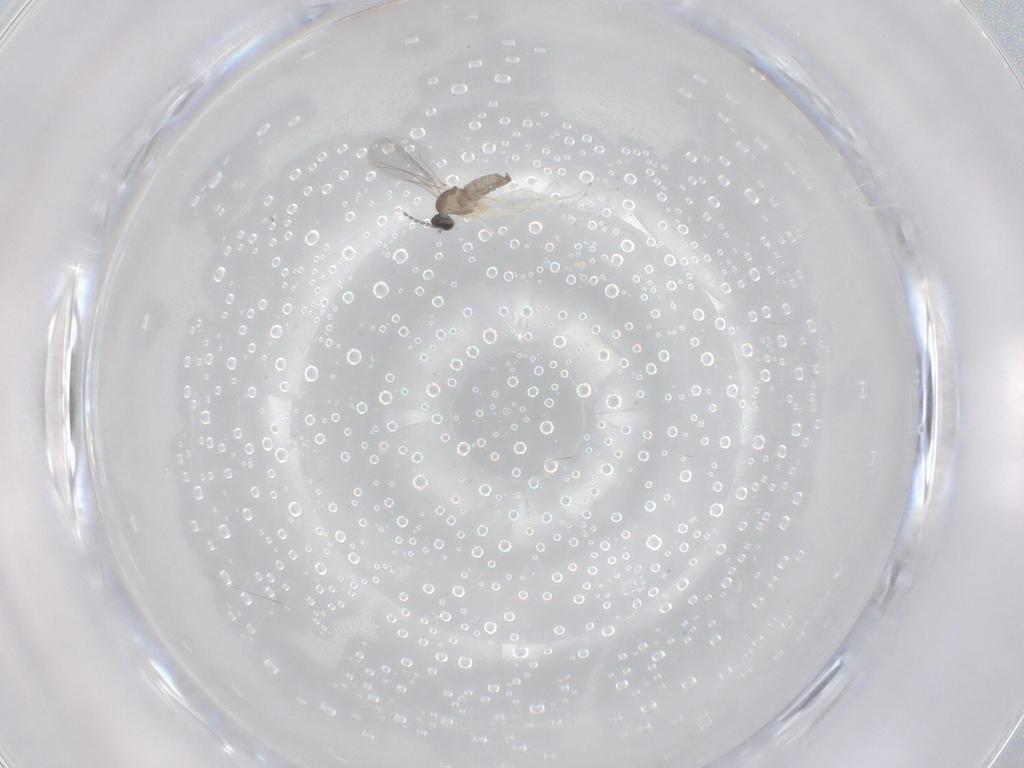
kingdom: Animalia
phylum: Arthropoda
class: Insecta
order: Diptera
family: Cecidomyiidae
